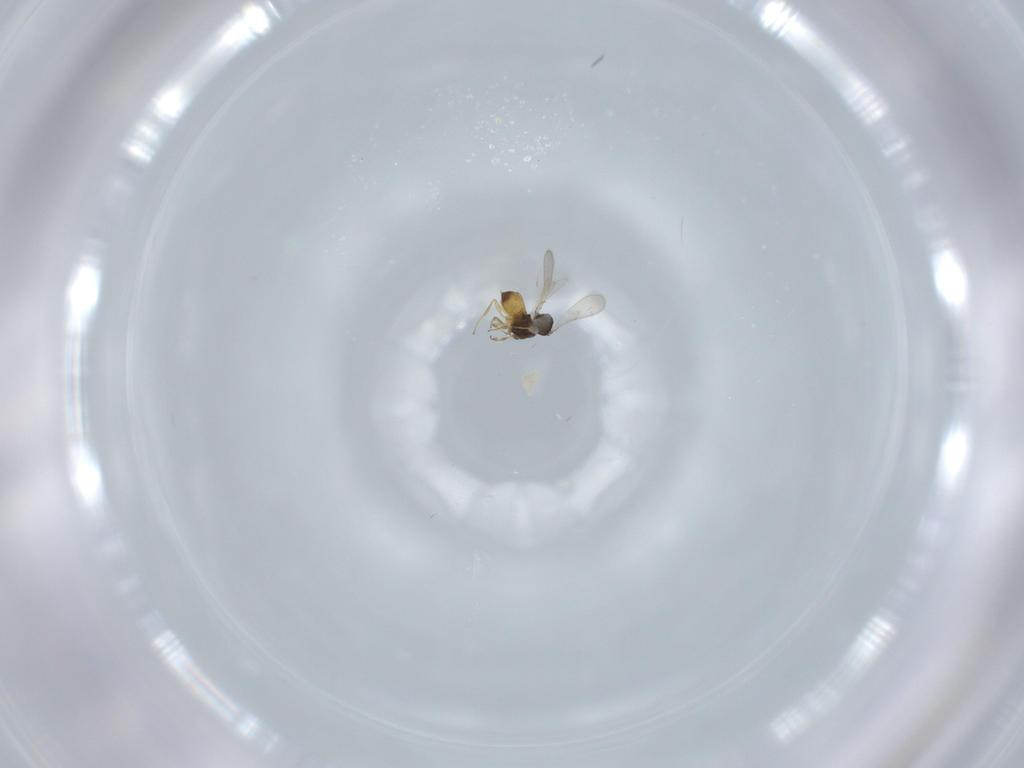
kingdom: Animalia
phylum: Arthropoda
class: Insecta
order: Hymenoptera
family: Scelionidae
